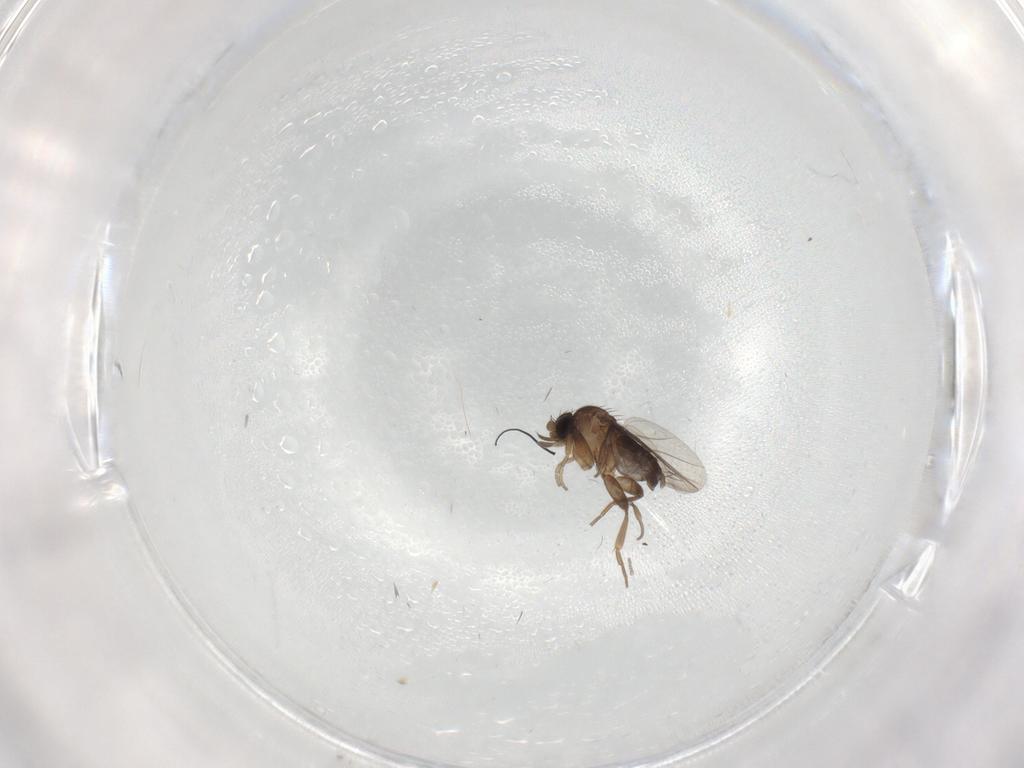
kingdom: Animalia
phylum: Arthropoda
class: Insecta
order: Diptera
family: Phoridae
